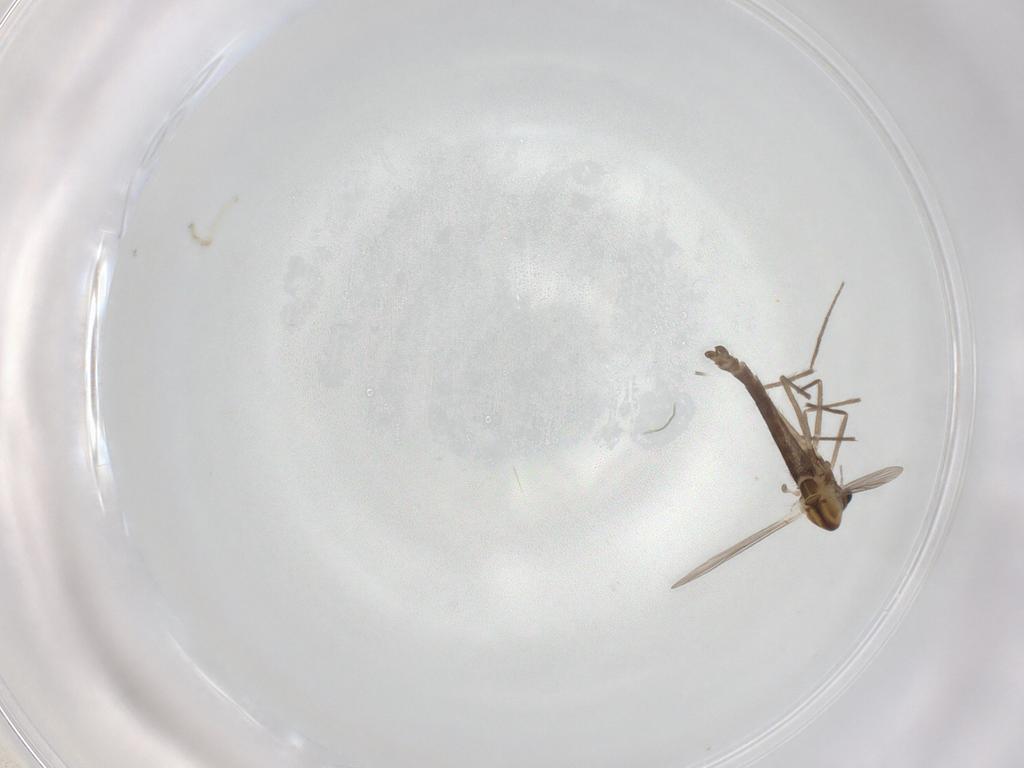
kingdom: Animalia
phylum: Arthropoda
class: Insecta
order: Diptera
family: Chironomidae
